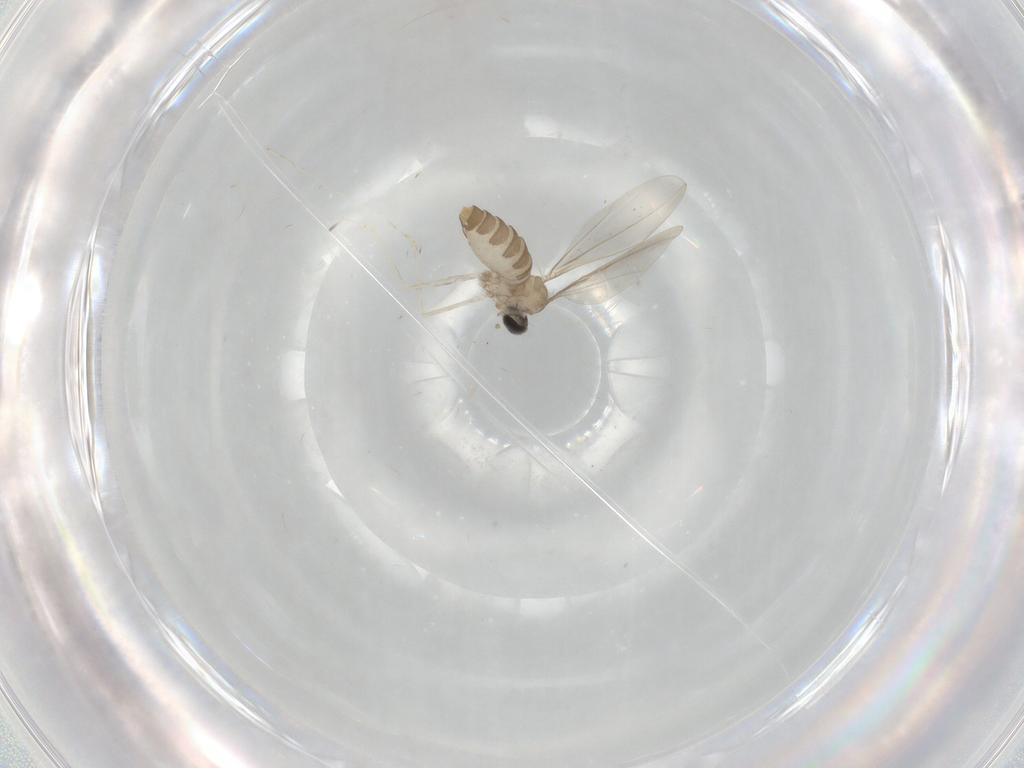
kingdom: Animalia
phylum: Arthropoda
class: Insecta
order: Diptera
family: Cecidomyiidae
